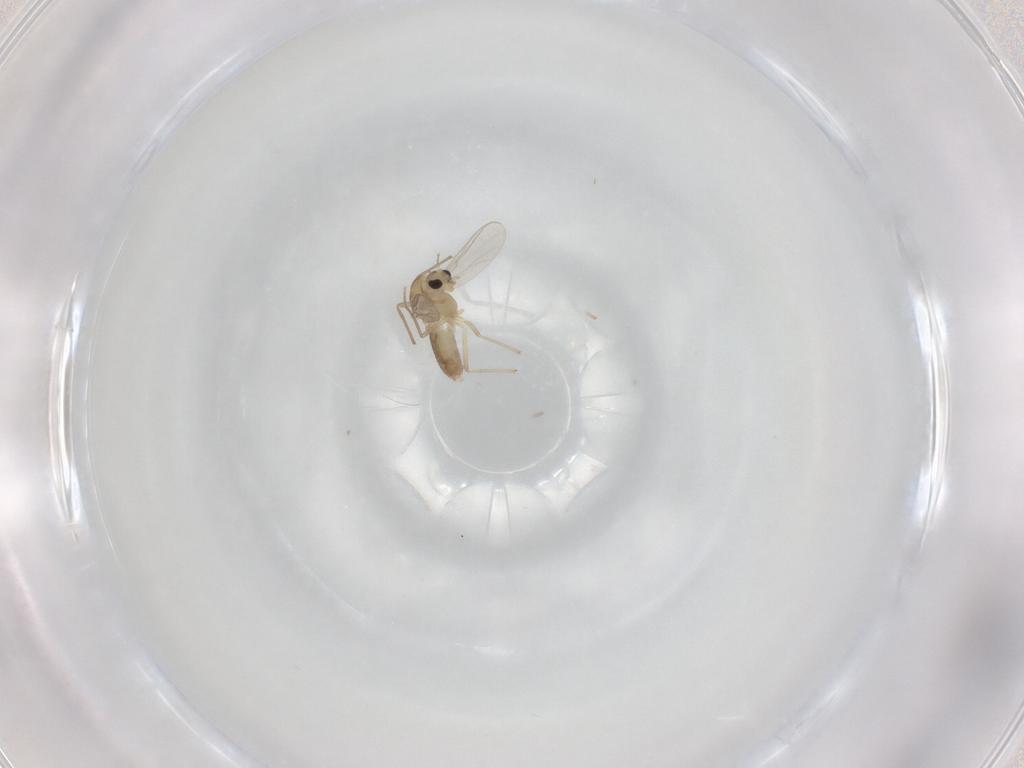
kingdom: Animalia
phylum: Arthropoda
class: Insecta
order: Diptera
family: Chironomidae
